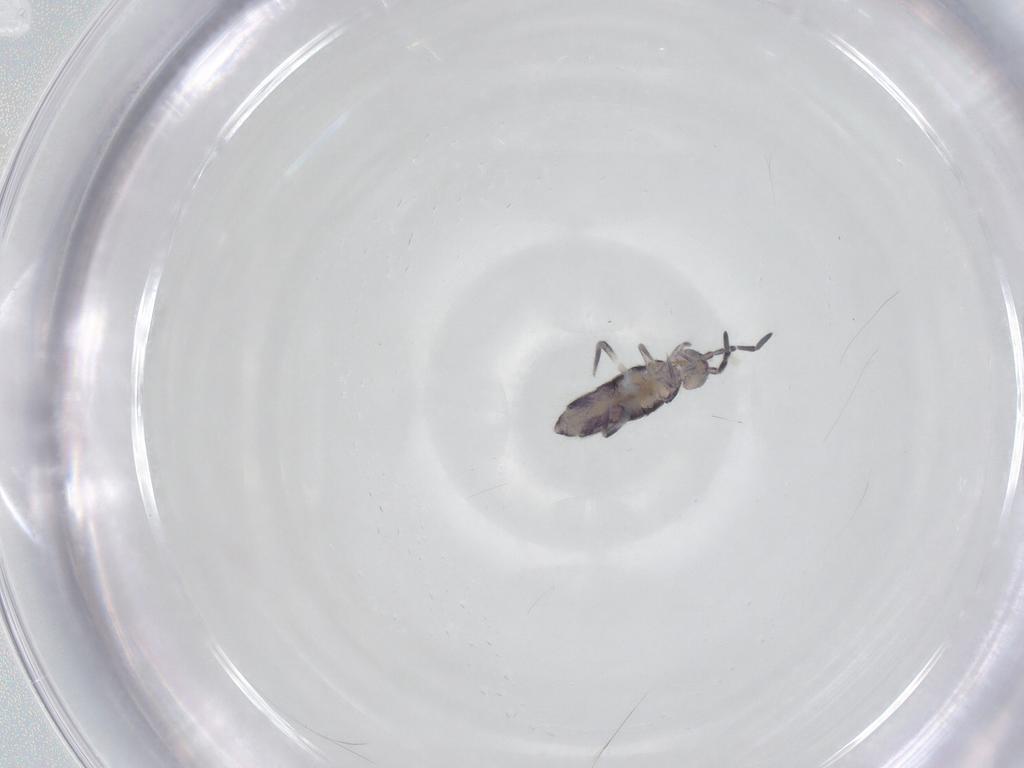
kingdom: Animalia
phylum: Arthropoda
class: Collembola
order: Entomobryomorpha
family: Entomobryidae
